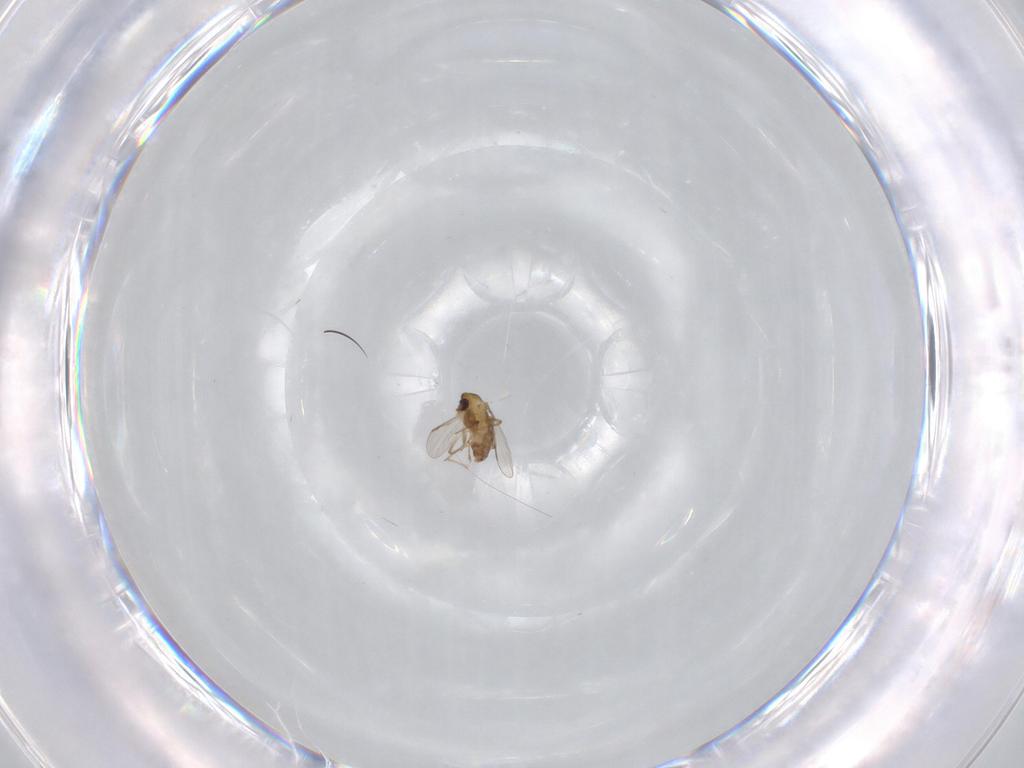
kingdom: Animalia
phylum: Arthropoda
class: Insecta
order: Diptera
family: Chironomidae
